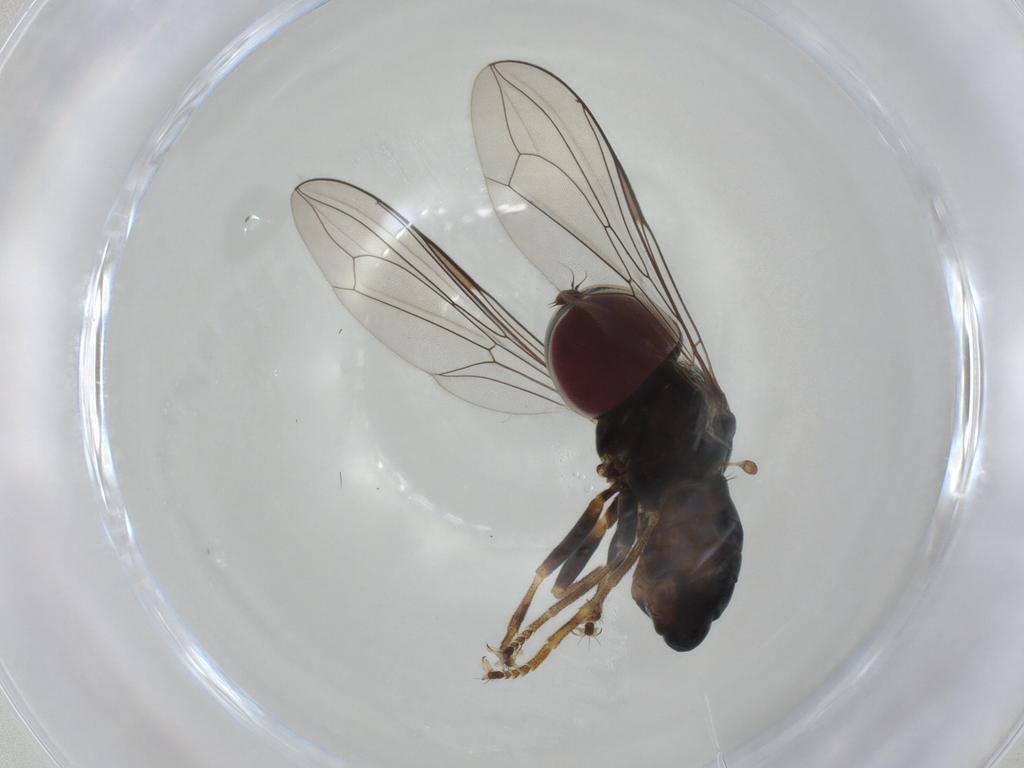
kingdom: Animalia
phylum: Arthropoda
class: Insecta
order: Diptera
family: Pipunculidae
